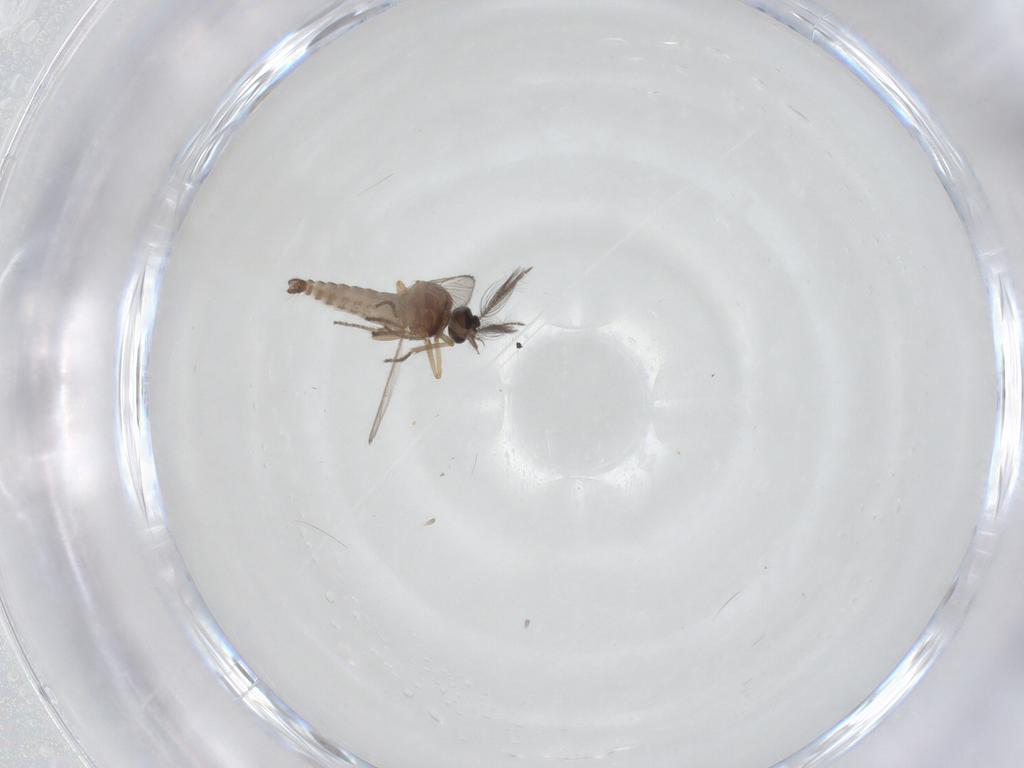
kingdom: Animalia
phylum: Arthropoda
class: Insecta
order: Diptera
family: Ceratopogonidae
